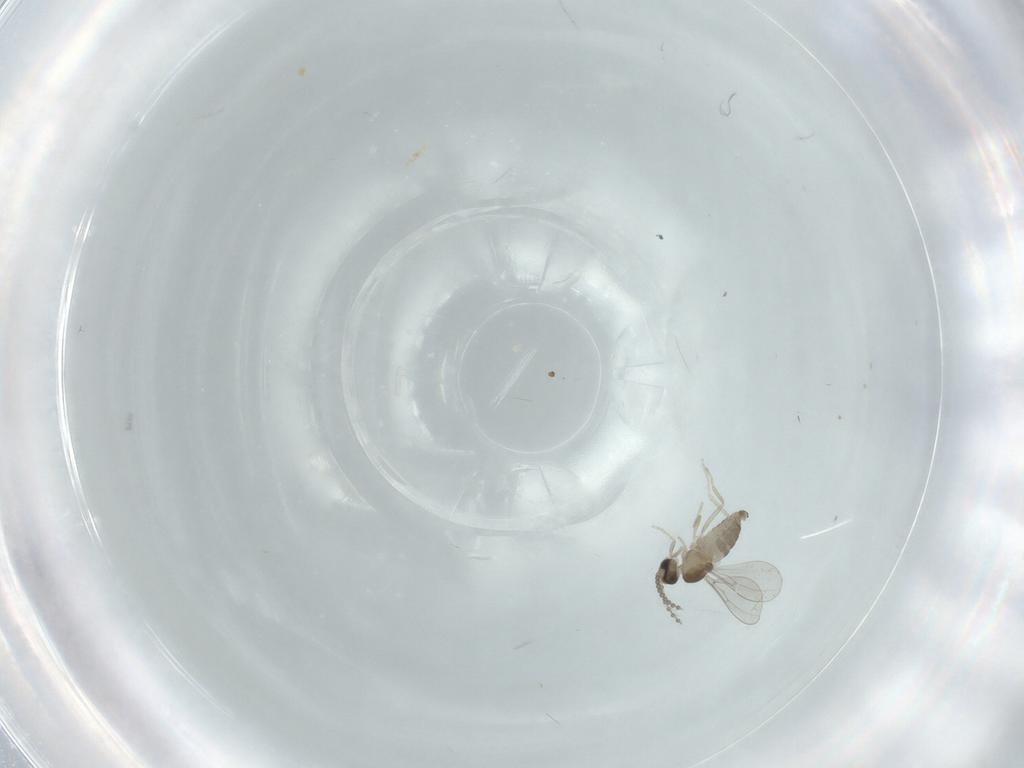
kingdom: Animalia
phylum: Arthropoda
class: Insecta
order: Diptera
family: Cecidomyiidae
